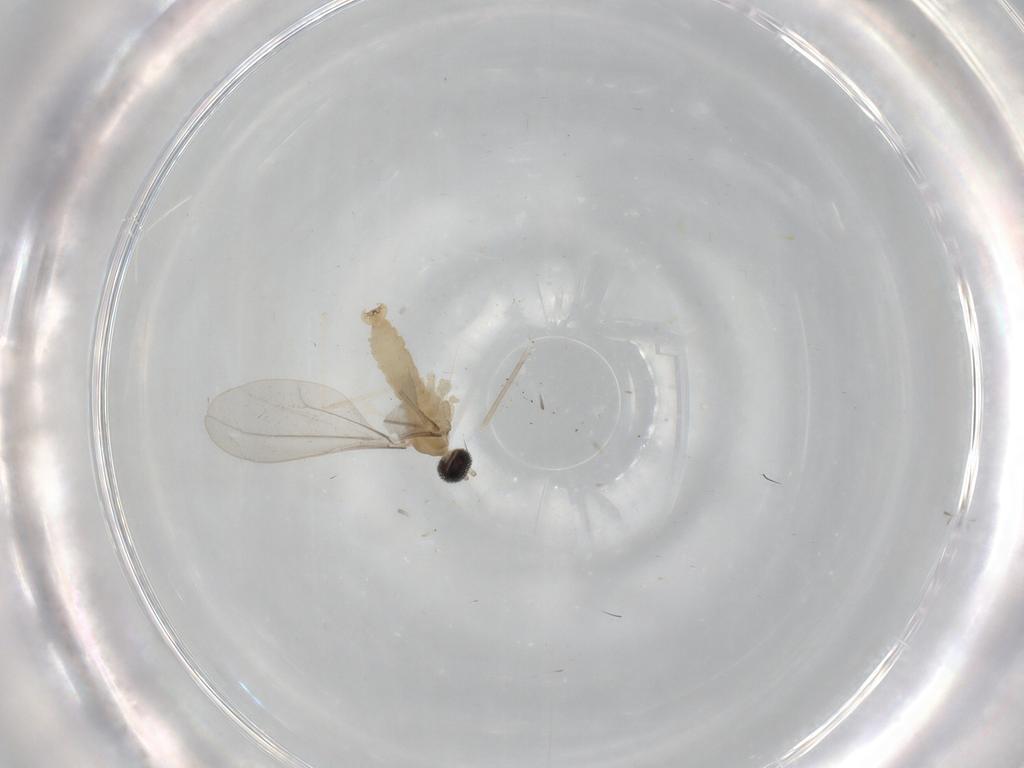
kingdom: Animalia
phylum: Arthropoda
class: Insecta
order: Diptera
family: Cecidomyiidae
